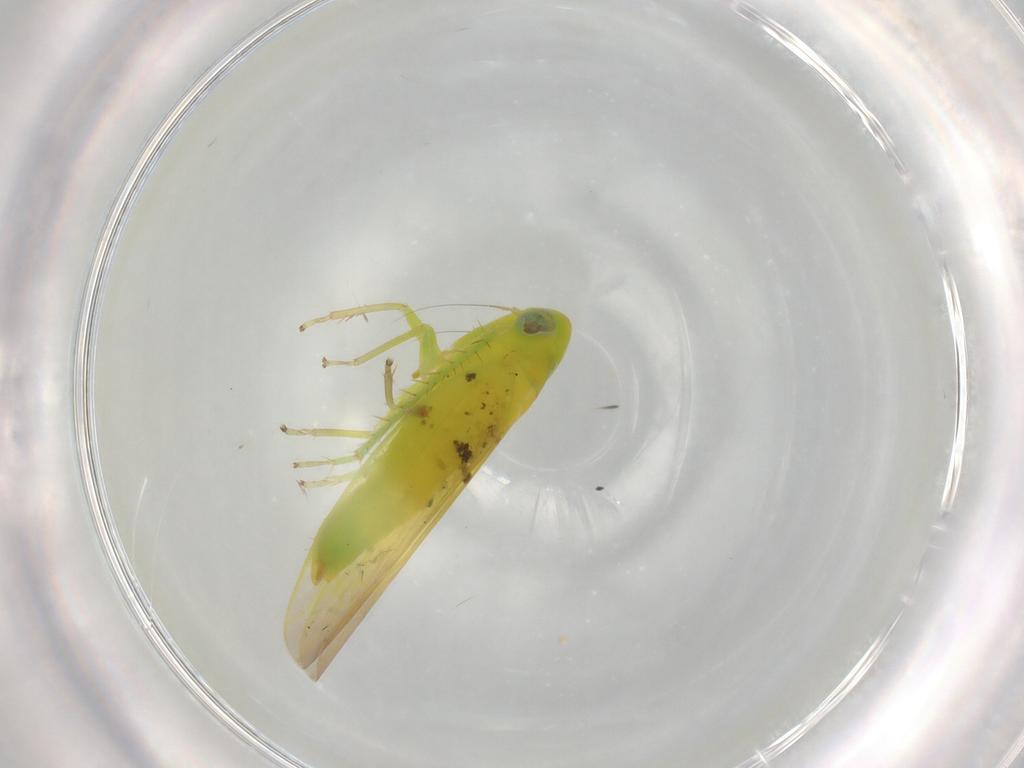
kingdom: Animalia
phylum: Arthropoda
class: Insecta
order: Hemiptera
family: Aleyrodidae
